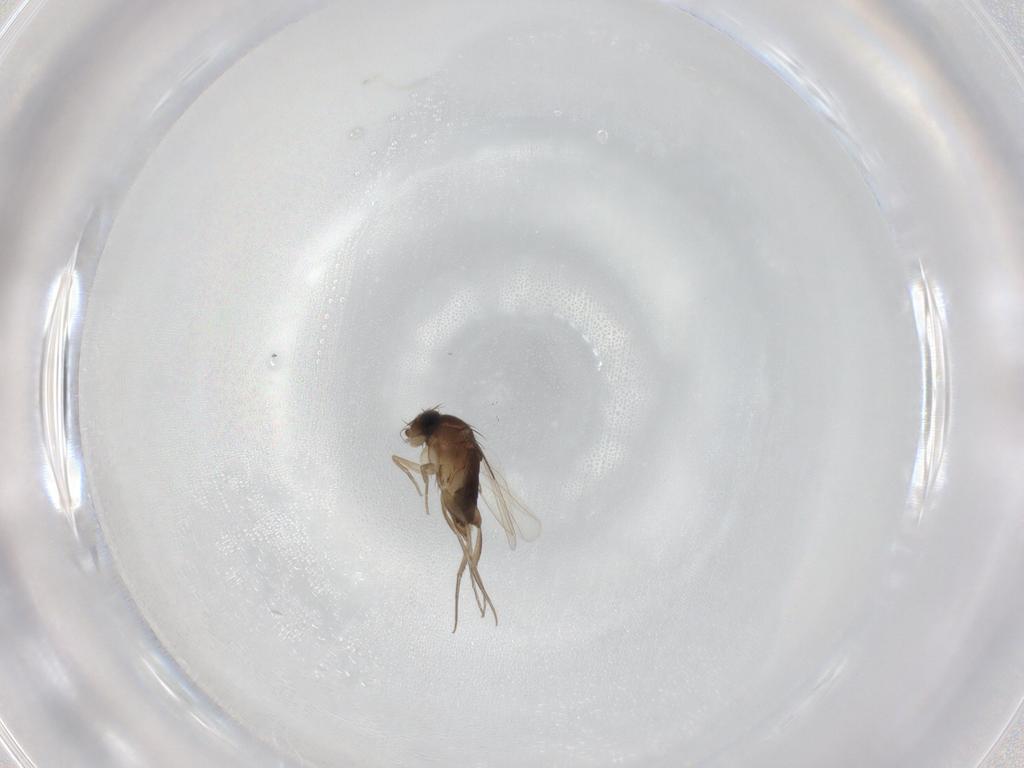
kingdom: Animalia
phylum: Arthropoda
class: Insecta
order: Diptera
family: Phoridae
